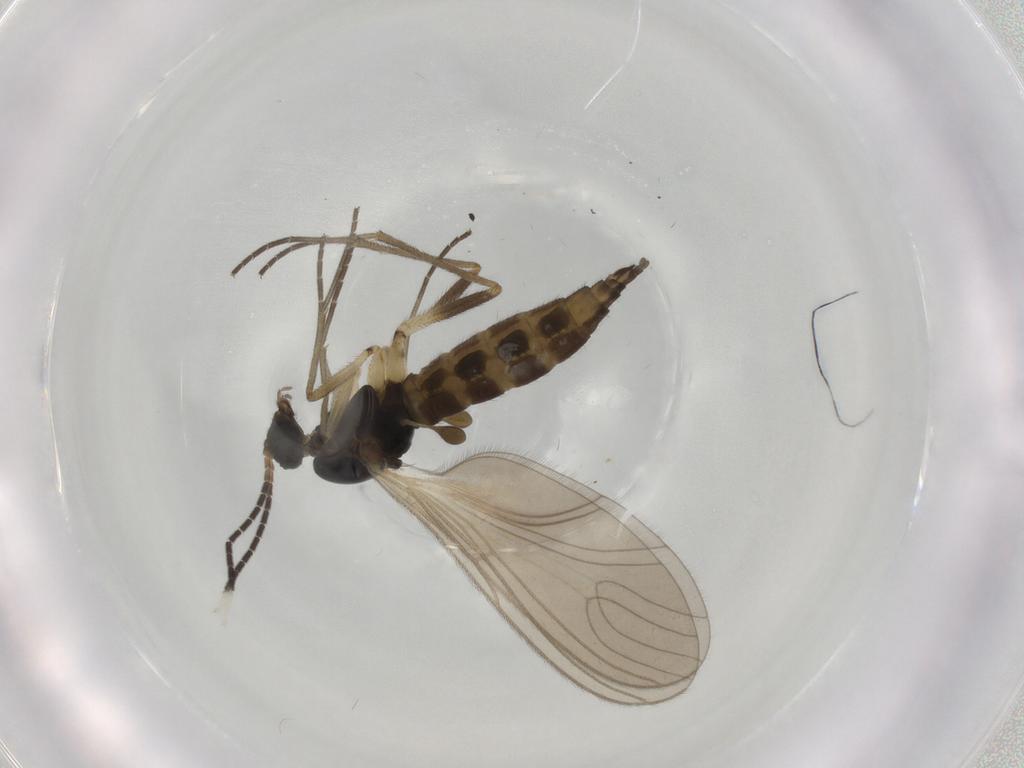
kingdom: Animalia
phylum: Arthropoda
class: Insecta
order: Diptera
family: Sciaridae
